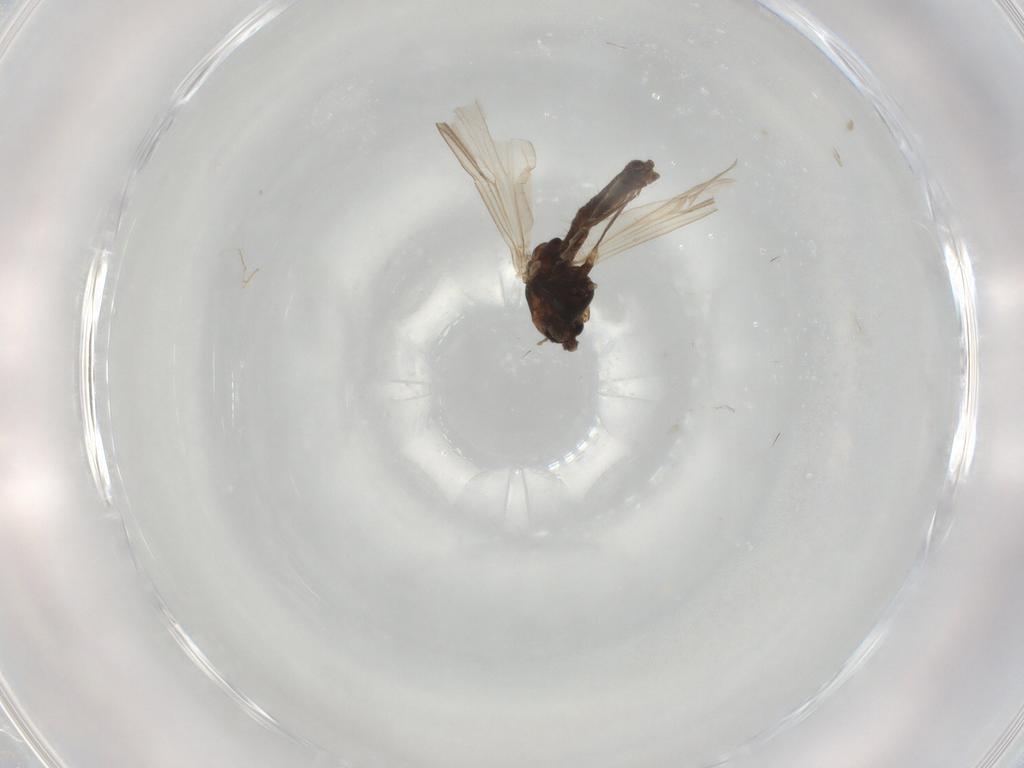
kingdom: Animalia
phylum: Arthropoda
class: Insecta
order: Diptera
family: Chironomidae
